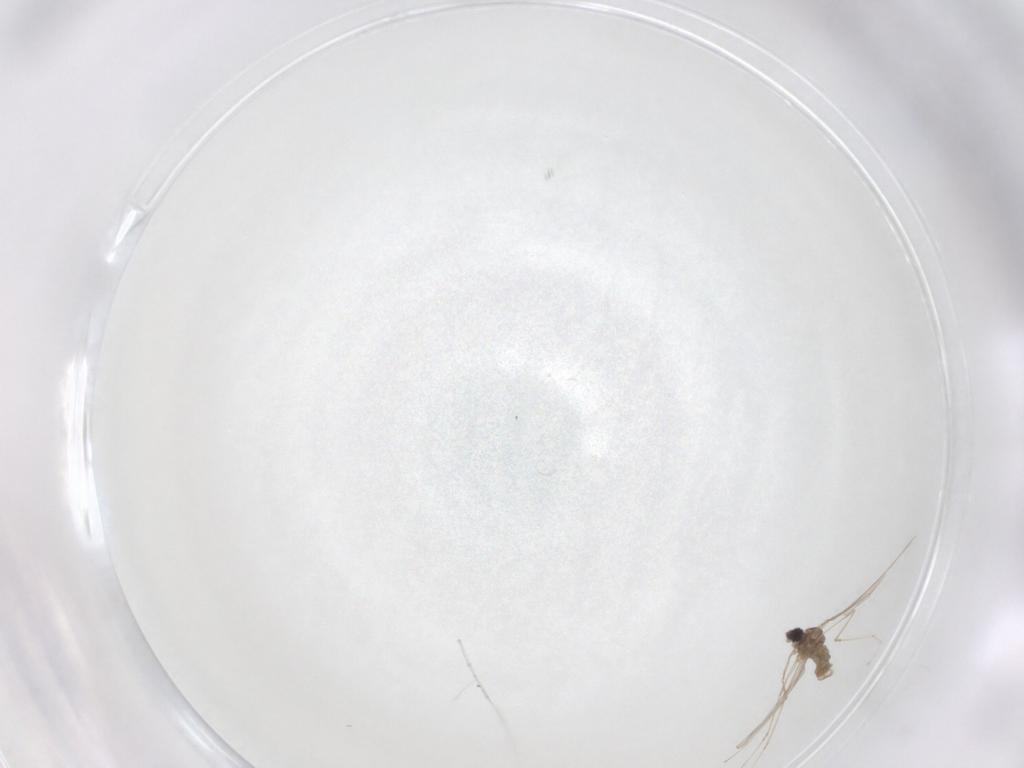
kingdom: Animalia
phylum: Arthropoda
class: Insecta
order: Diptera
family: Cecidomyiidae
